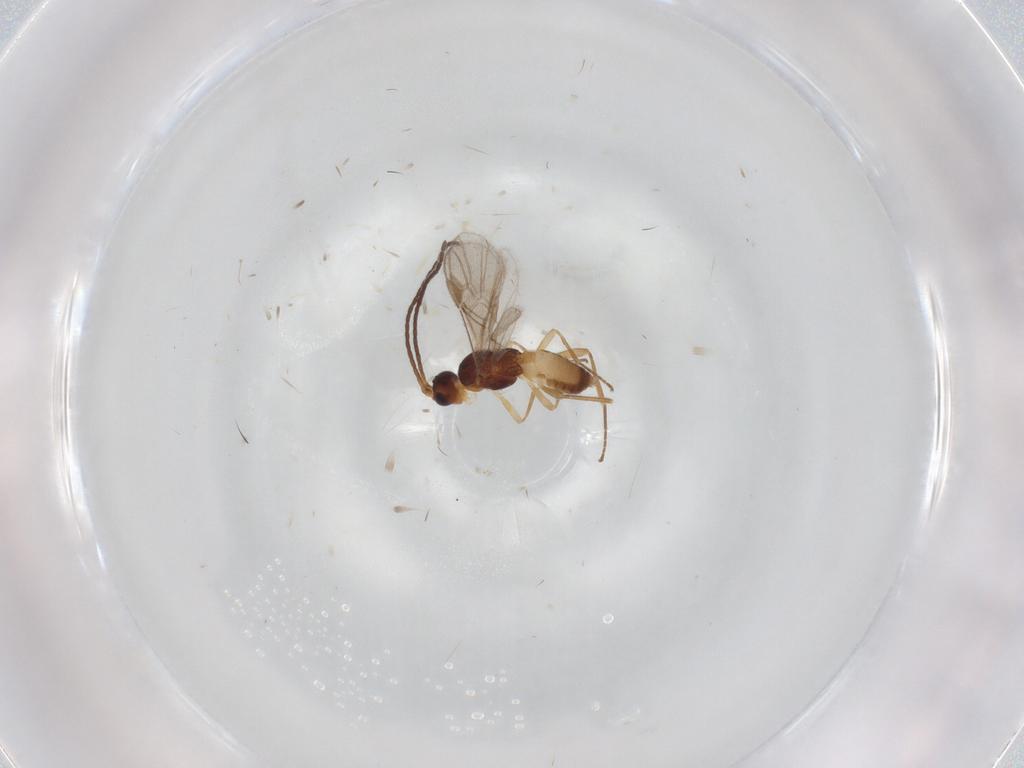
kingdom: Animalia
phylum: Arthropoda
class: Insecta
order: Hymenoptera
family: Braconidae
